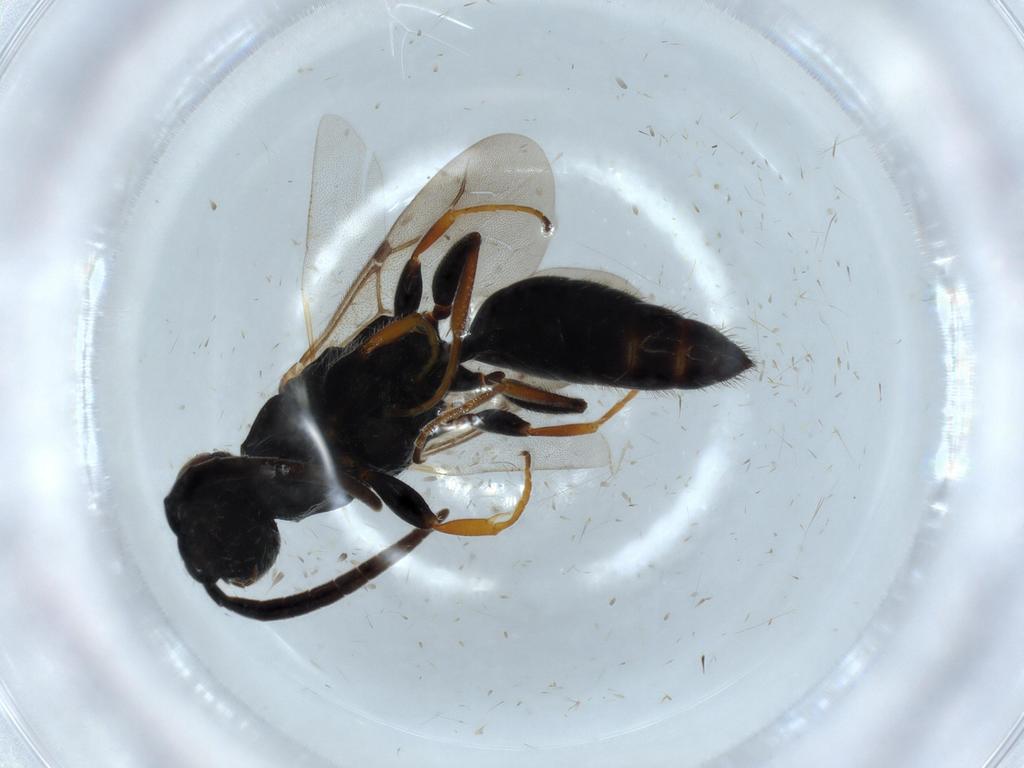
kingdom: Animalia
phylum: Arthropoda
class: Insecta
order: Hymenoptera
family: Bethylidae
